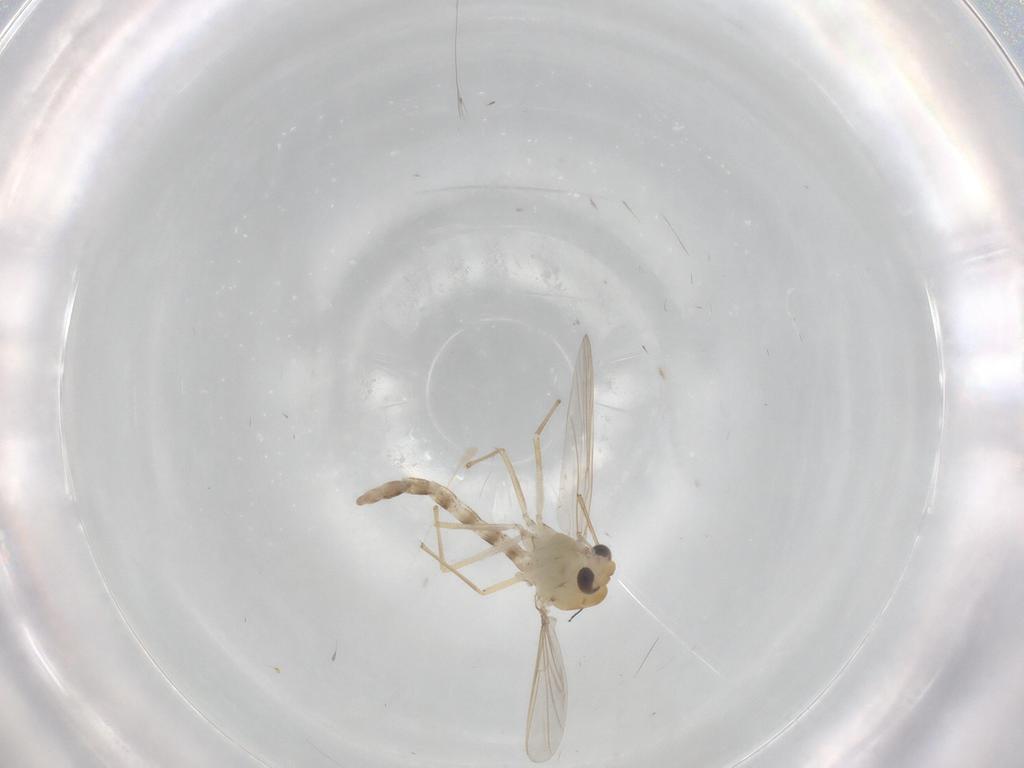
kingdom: Animalia
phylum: Arthropoda
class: Insecta
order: Diptera
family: Chironomidae
